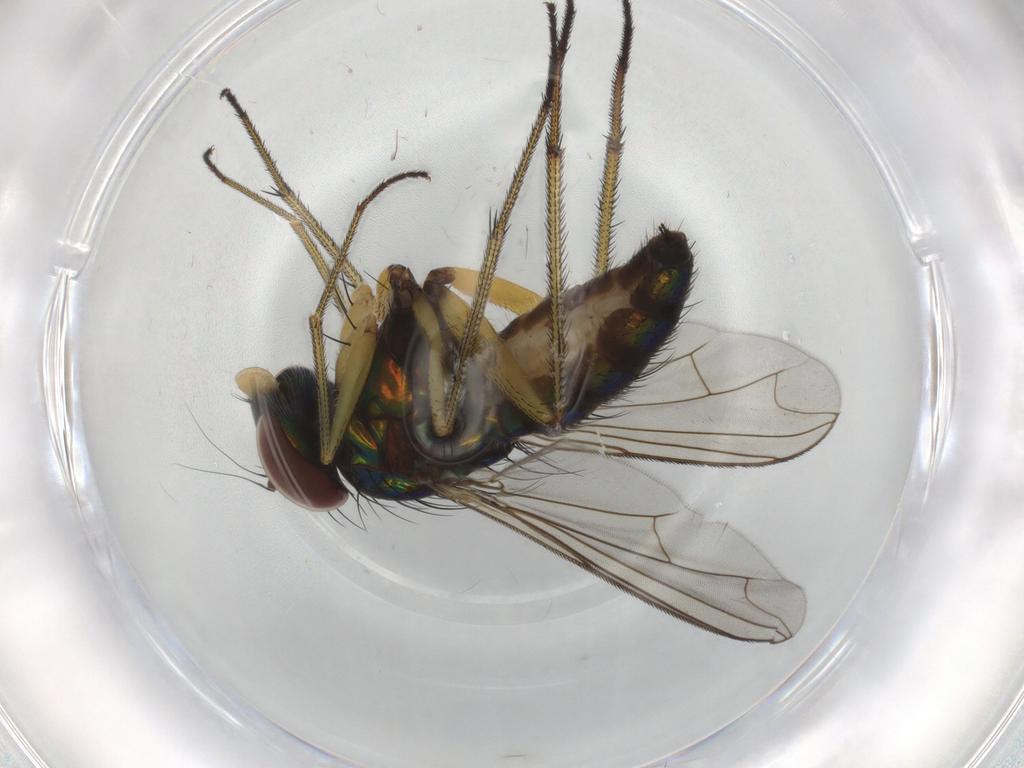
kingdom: Animalia
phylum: Arthropoda
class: Insecta
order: Diptera
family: Dolichopodidae
